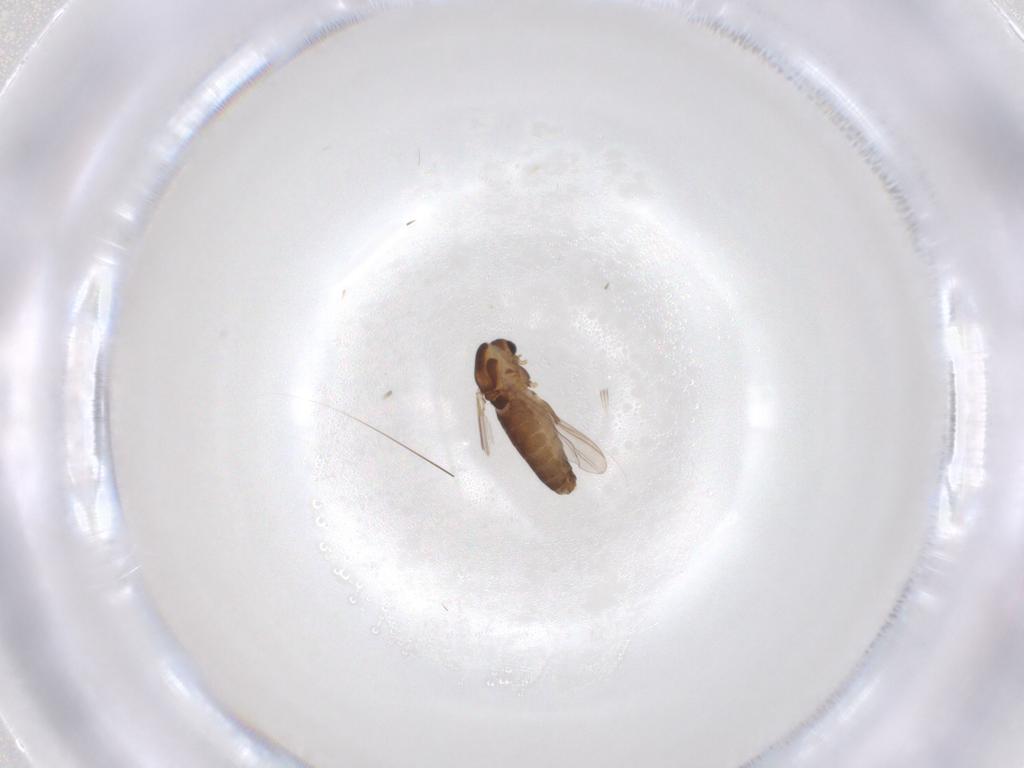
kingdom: Animalia
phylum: Arthropoda
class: Insecta
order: Diptera
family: Chironomidae
